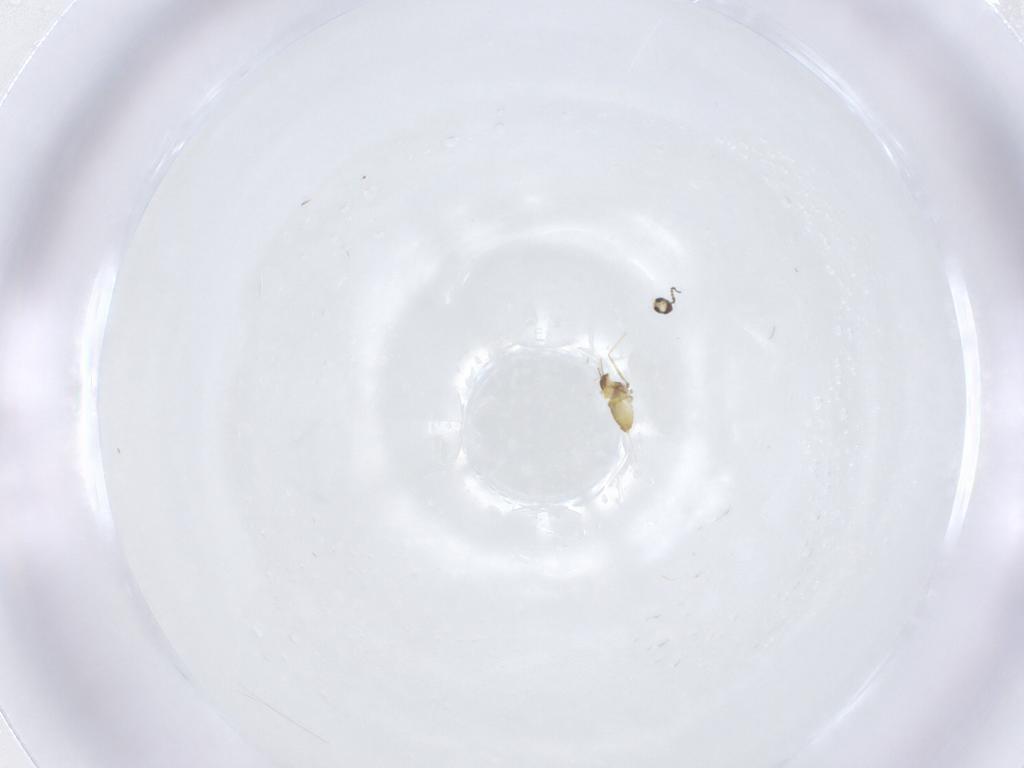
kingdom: Animalia
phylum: Arthropoda
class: Insecta
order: Diptera
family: Cecidomyiidae
